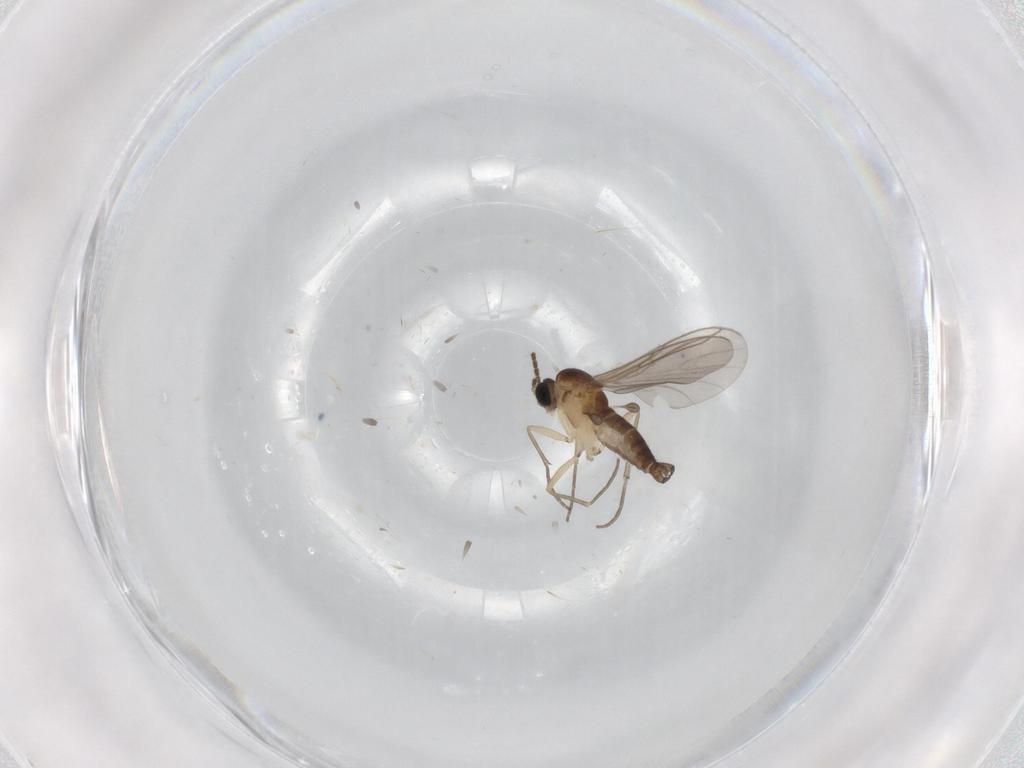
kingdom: Animalia
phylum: Arthropoda
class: Insecta
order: Diptera
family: Sciaridae
